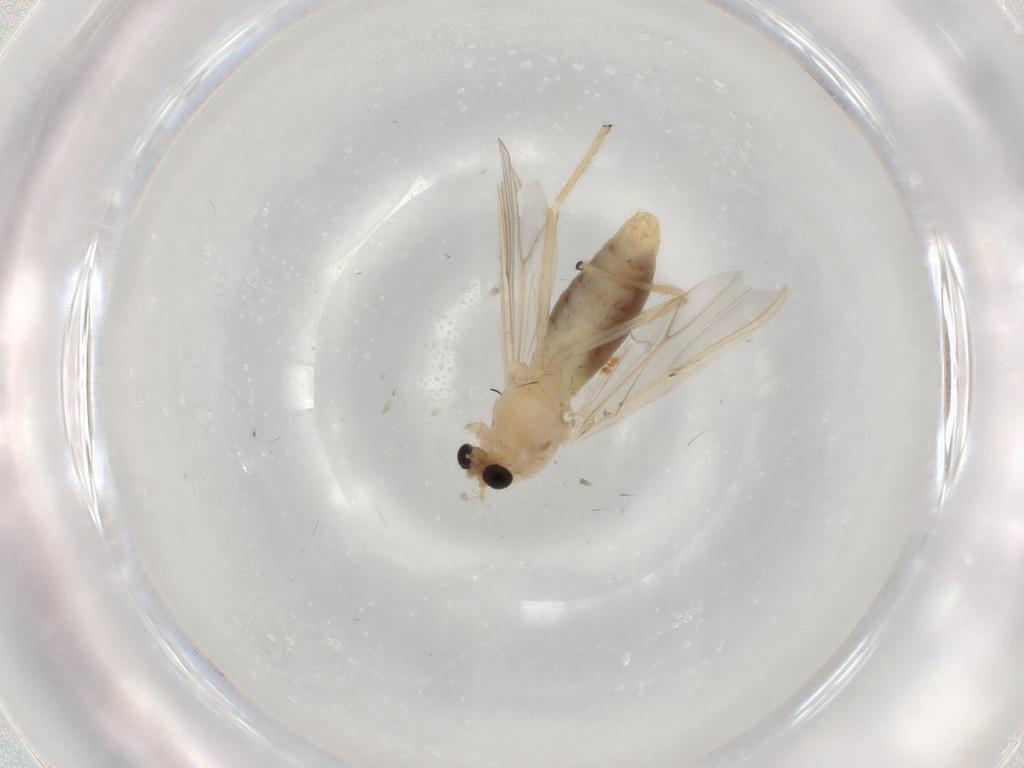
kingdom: Animalia
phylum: Arthropoda
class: Insecta
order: Diptera
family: Chironomidae
